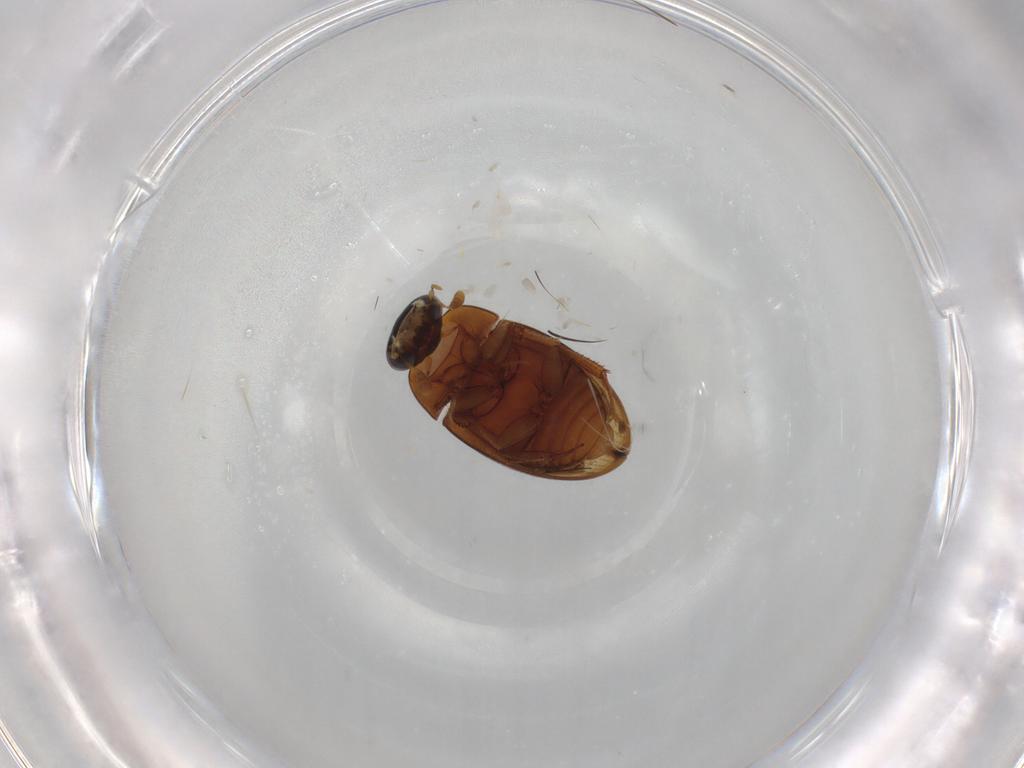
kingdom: Animalia
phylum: Arthropoda
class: Insecta
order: Coleoptera
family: Hydrophilidae
